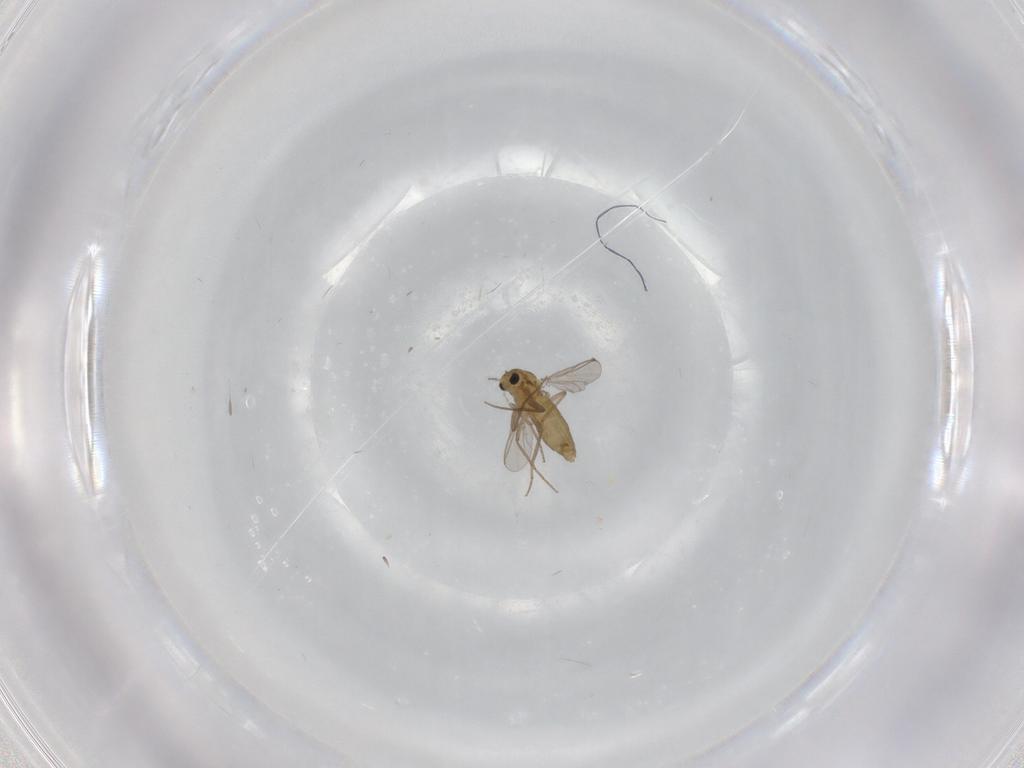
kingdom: Animalia
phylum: Arthropoda
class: Insecta
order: Diptera
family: Chironomidae
